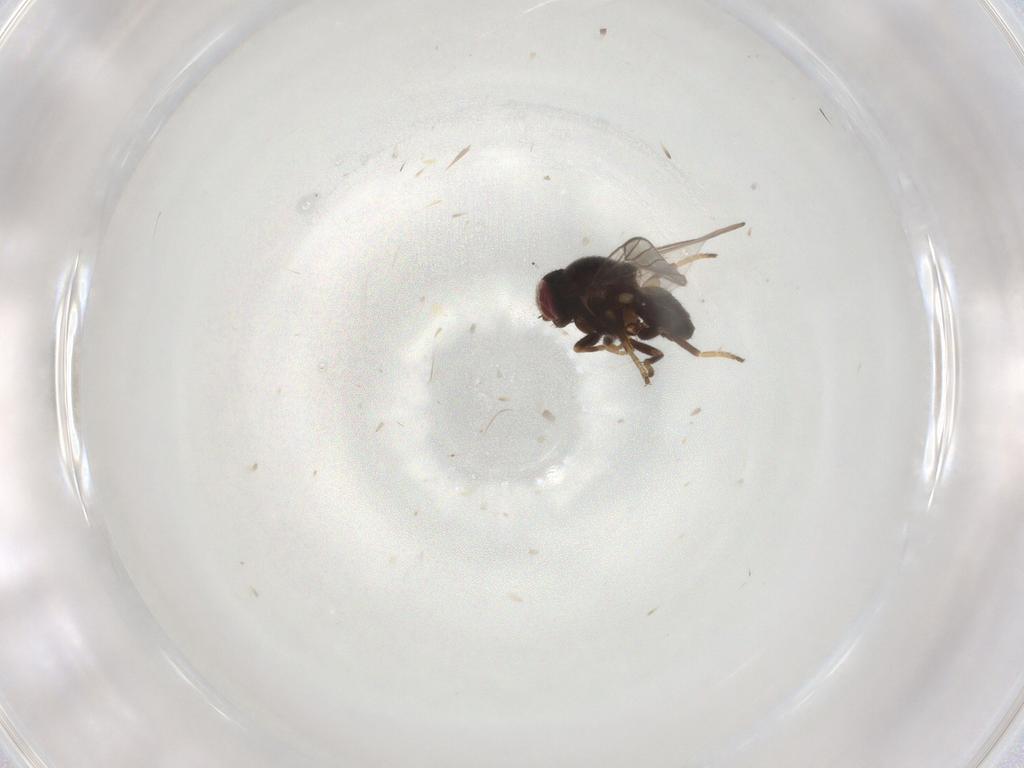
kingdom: Animalia
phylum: Arthropoda
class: Insecta
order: Diptera
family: Chloropidae
